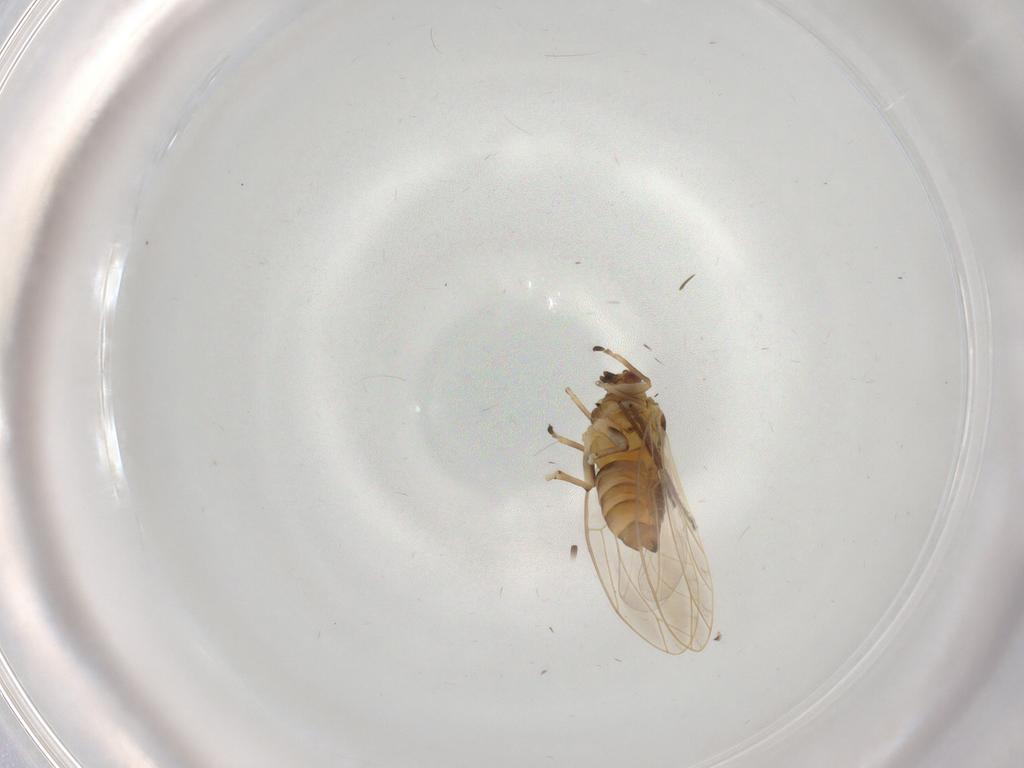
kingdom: Animalia
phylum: Arthropoda
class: Insecta
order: Hemiptera
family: Triozidae
